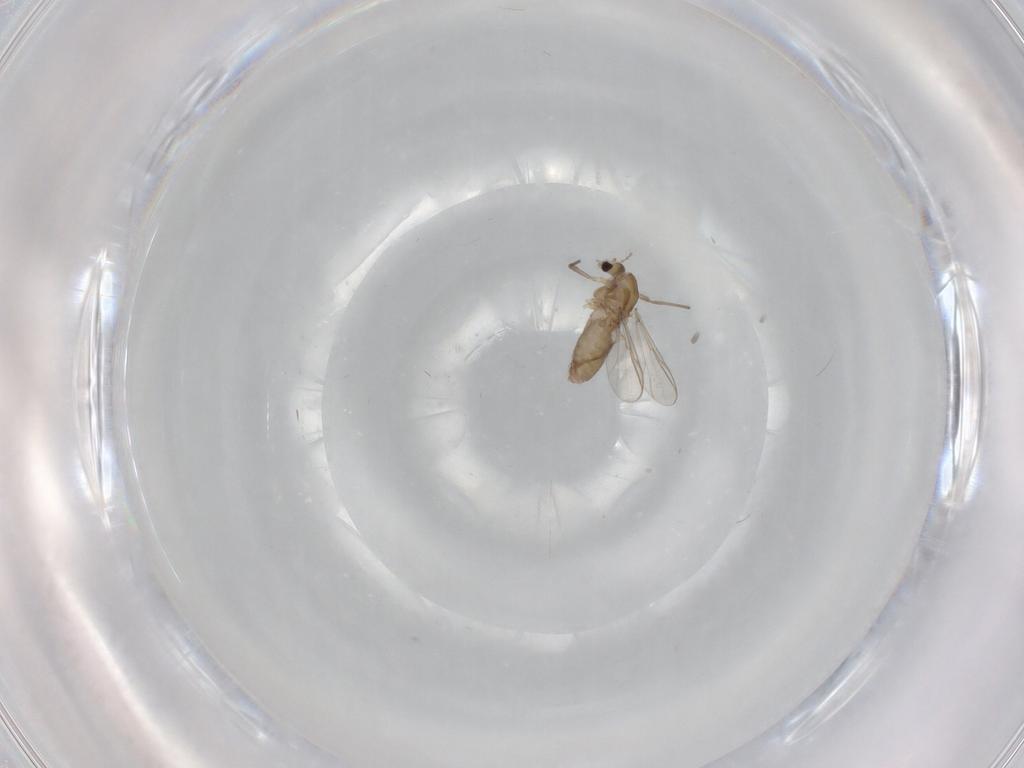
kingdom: Animalia
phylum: Arthropoda
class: Insecta
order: Diptera
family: Chironomidae
